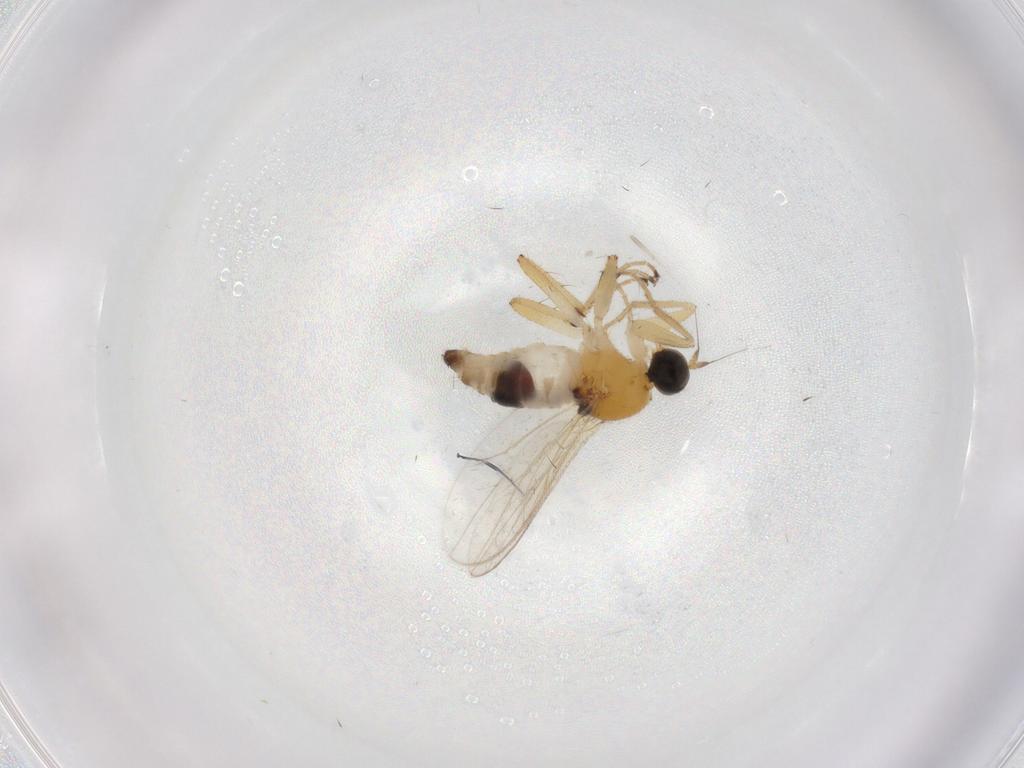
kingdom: Animalia
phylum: Arthropoda
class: Insecta
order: Diptera
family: Hybotidae
